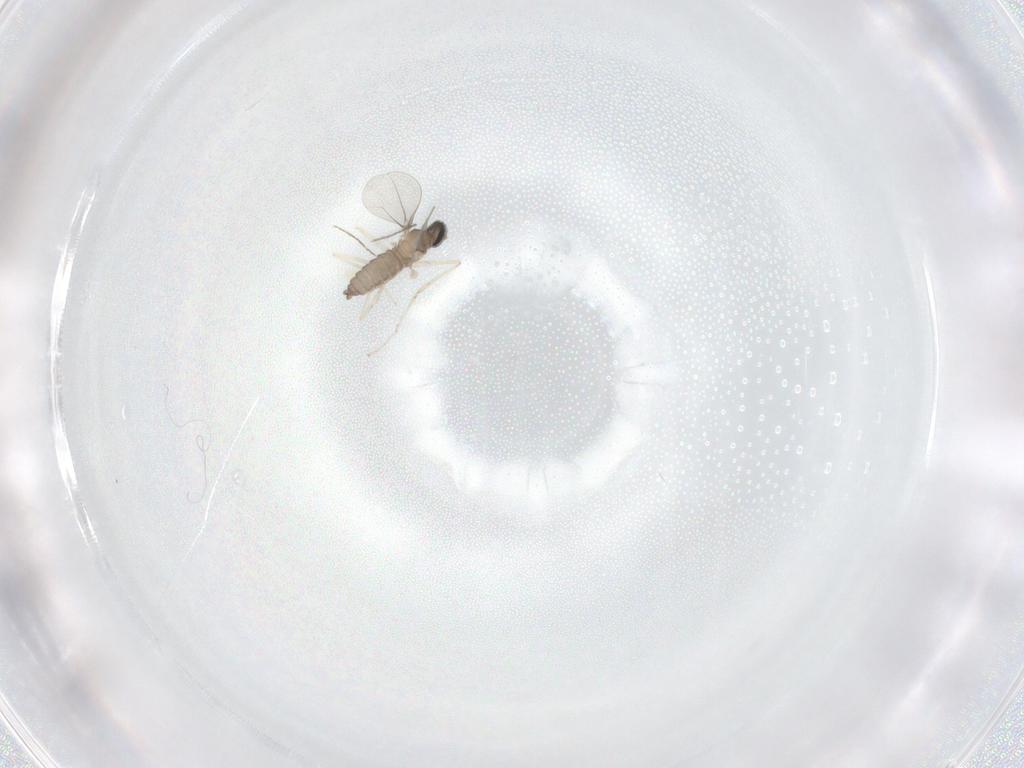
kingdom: Animalia
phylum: Arthropoda
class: Insecta
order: Diptera
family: Cecidomyiidae
